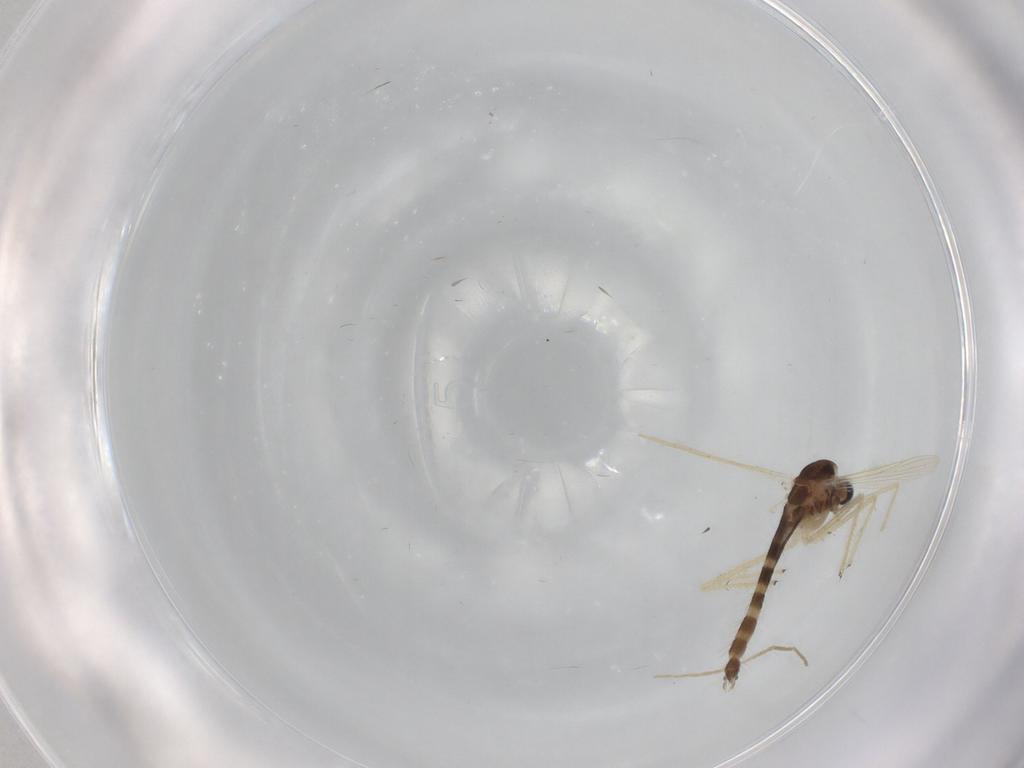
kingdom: Animalia
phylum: Arthropoda
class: Insecta
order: Diptera
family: Chironomidae
